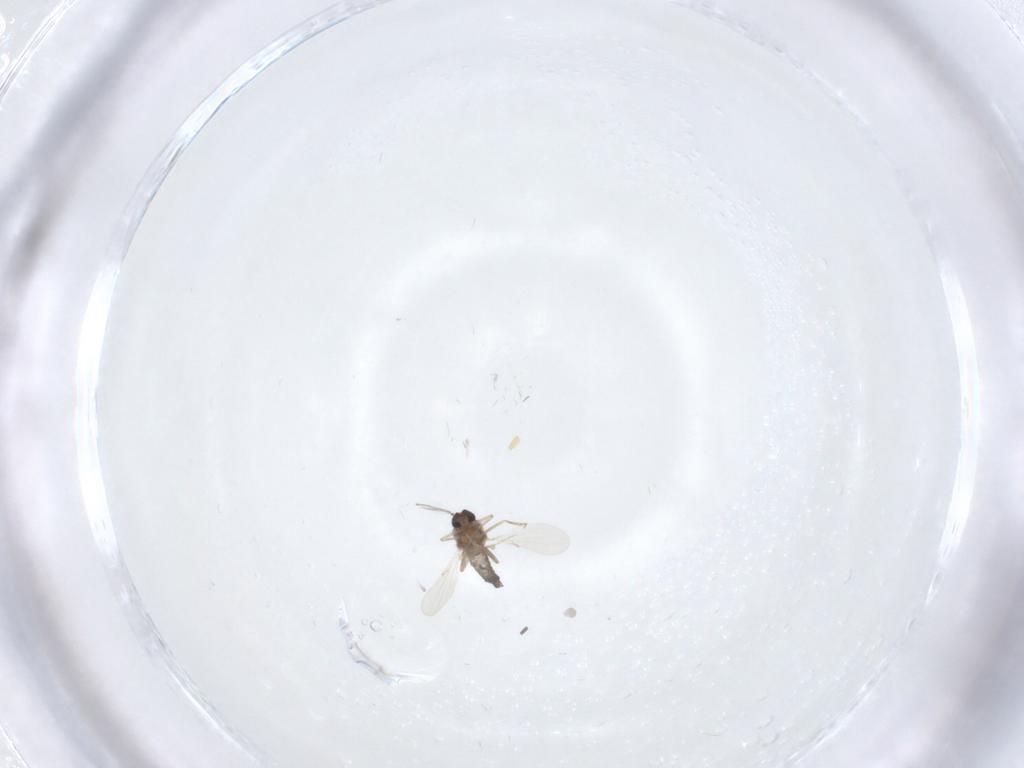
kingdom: Animalia
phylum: Arthropoda
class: Insecta
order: Diptera
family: Ceratopogonidae
